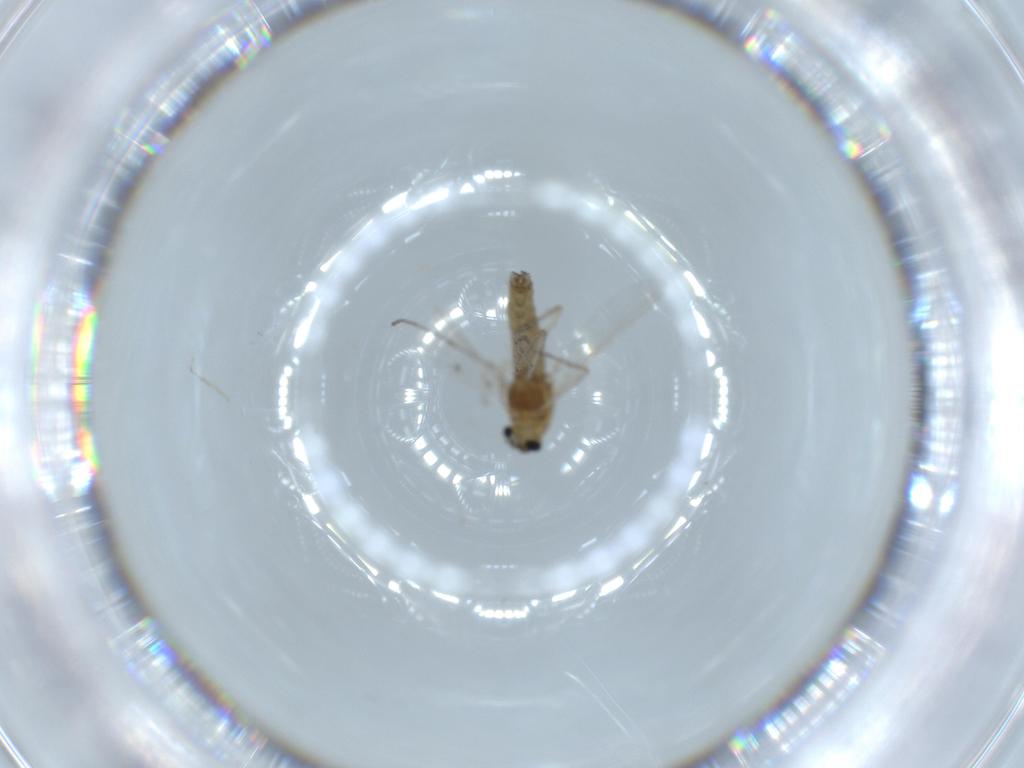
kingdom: Animalia
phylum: Arthropoda
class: Insecta
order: Diptera
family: Chironomidae
